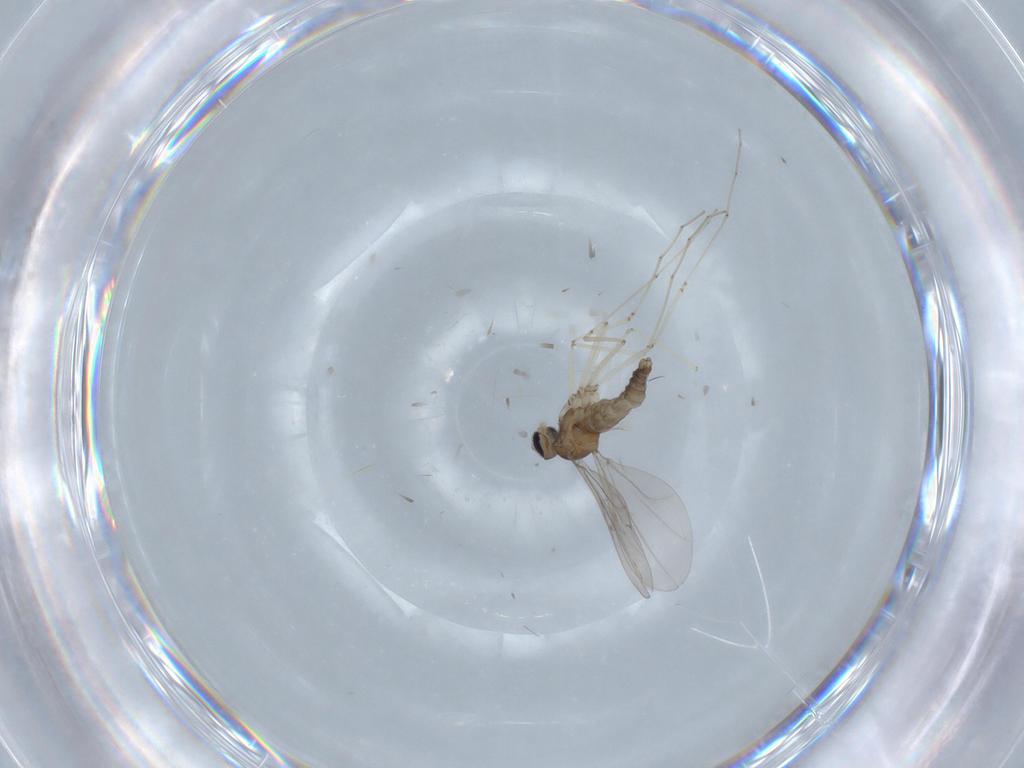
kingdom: Animalia
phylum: Arthropoda
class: Insecta
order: Diptera
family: Cecidomyiidae
